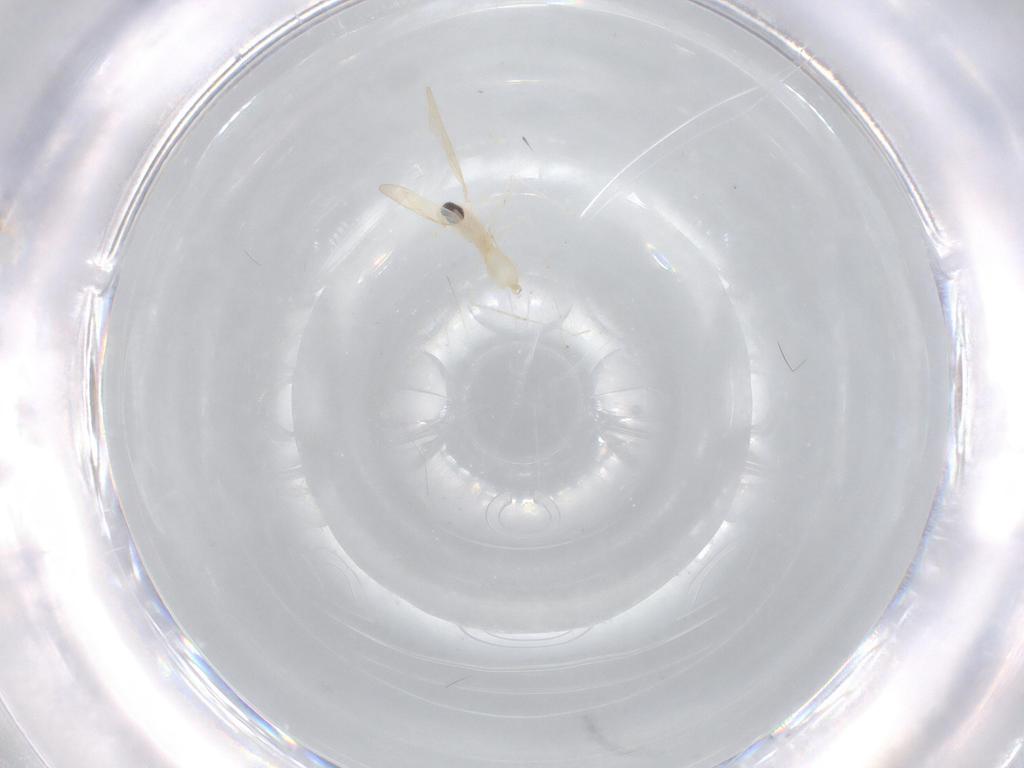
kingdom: Animalia
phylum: Arthropoda
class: Insecta
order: Diptera
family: Cecidomyiidae
